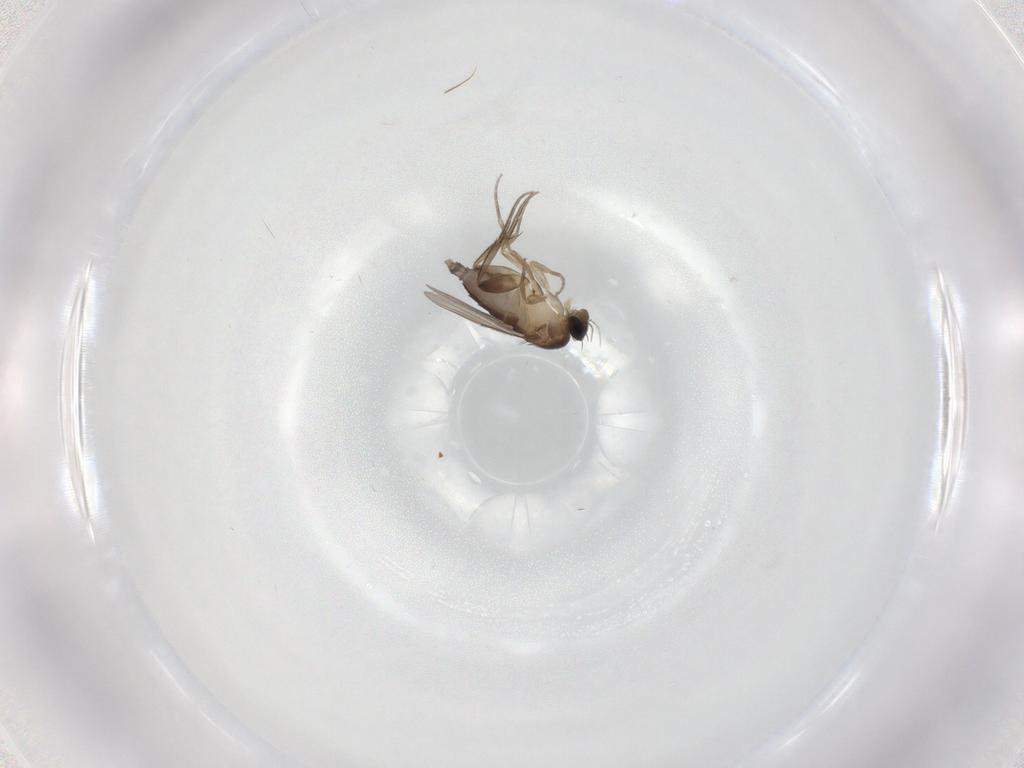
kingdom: Animalia
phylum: Arthropoda
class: Insecta
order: Diptera
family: Phoridae
